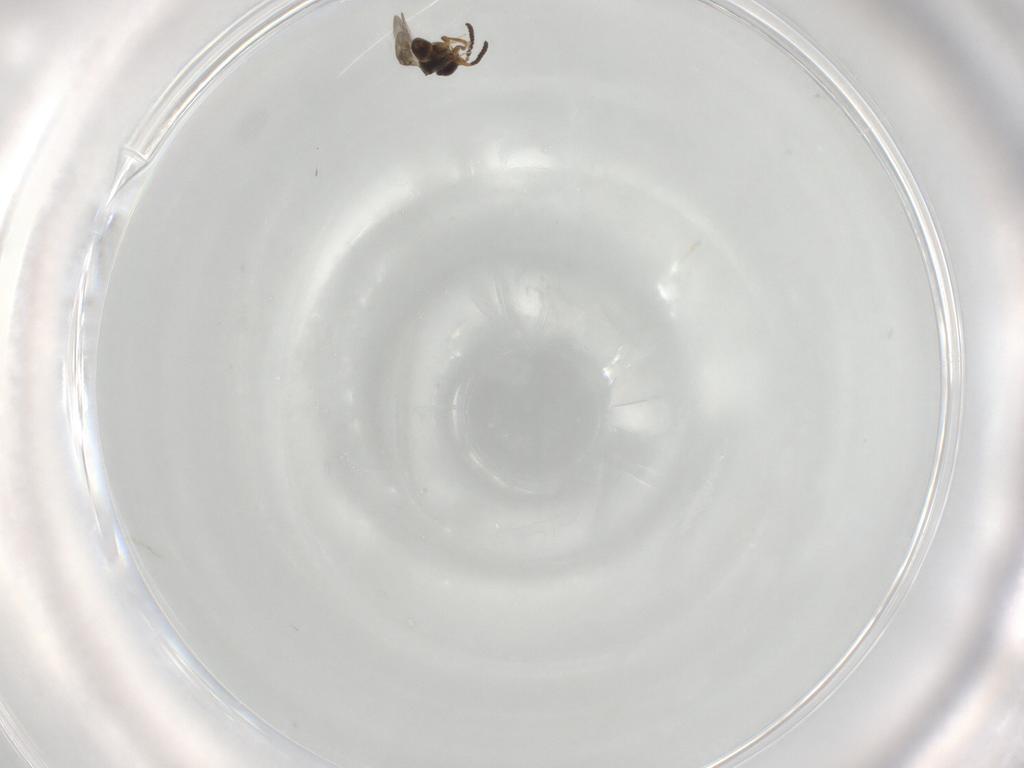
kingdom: Animalia
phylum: Arthropoda
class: Insecta
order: Hymenoptera
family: Ceraphronidae
